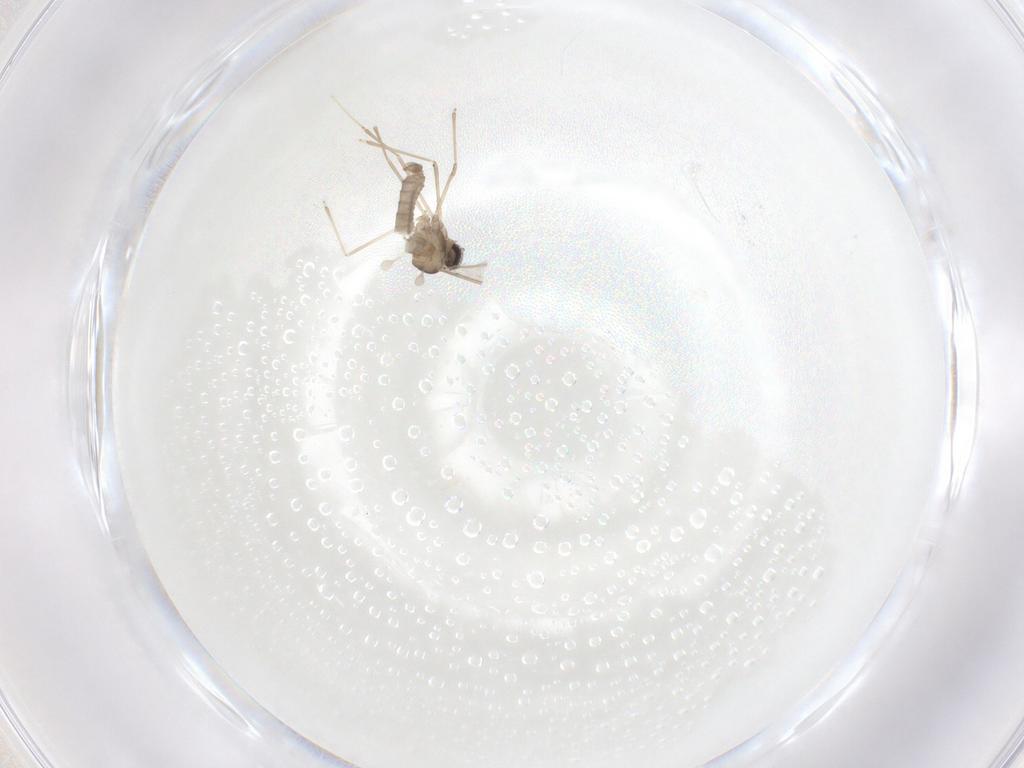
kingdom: Animalia
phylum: Arthropoda
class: Insecta
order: Diptera
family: Cecidomyiidae
